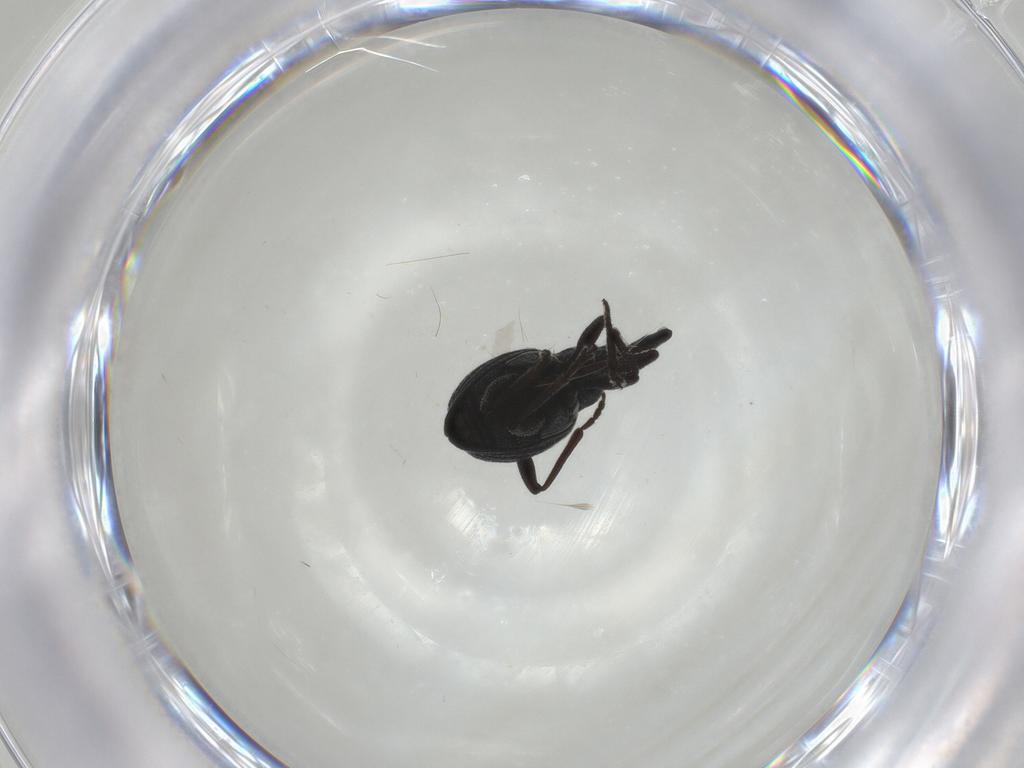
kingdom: Animalia
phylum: Arthropoda
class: Insecta
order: Coleoptera
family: Brentidae
